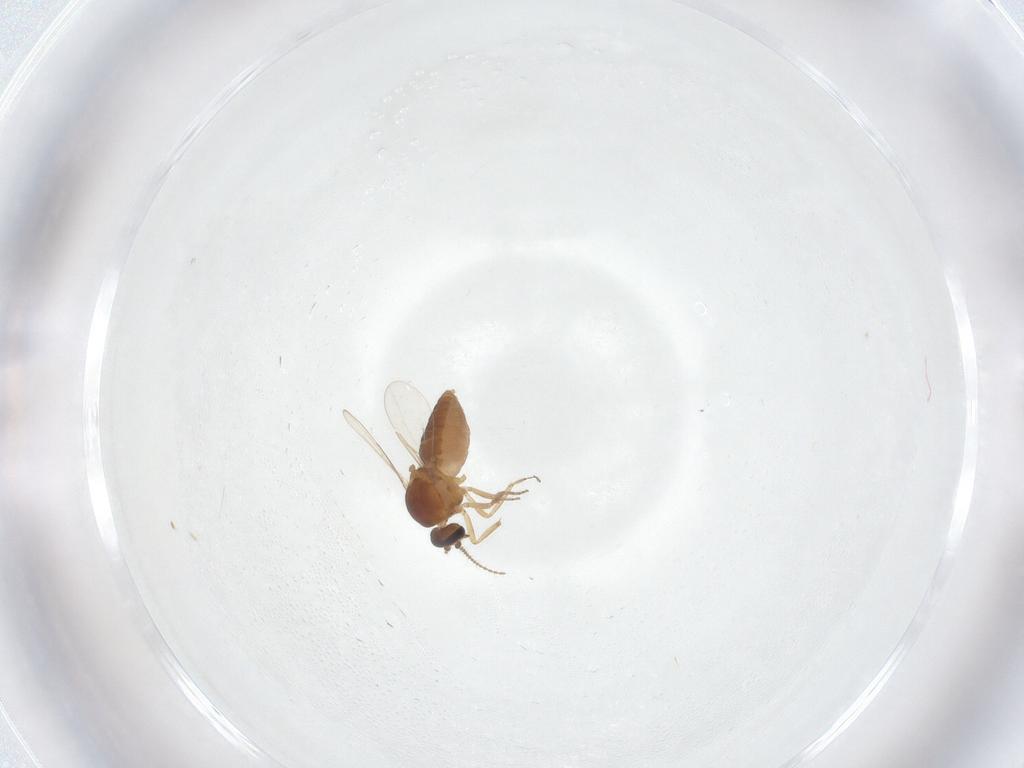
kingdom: Animalia
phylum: Arthropoda
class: Insecta
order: Diptera
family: Ceratopogonidae
